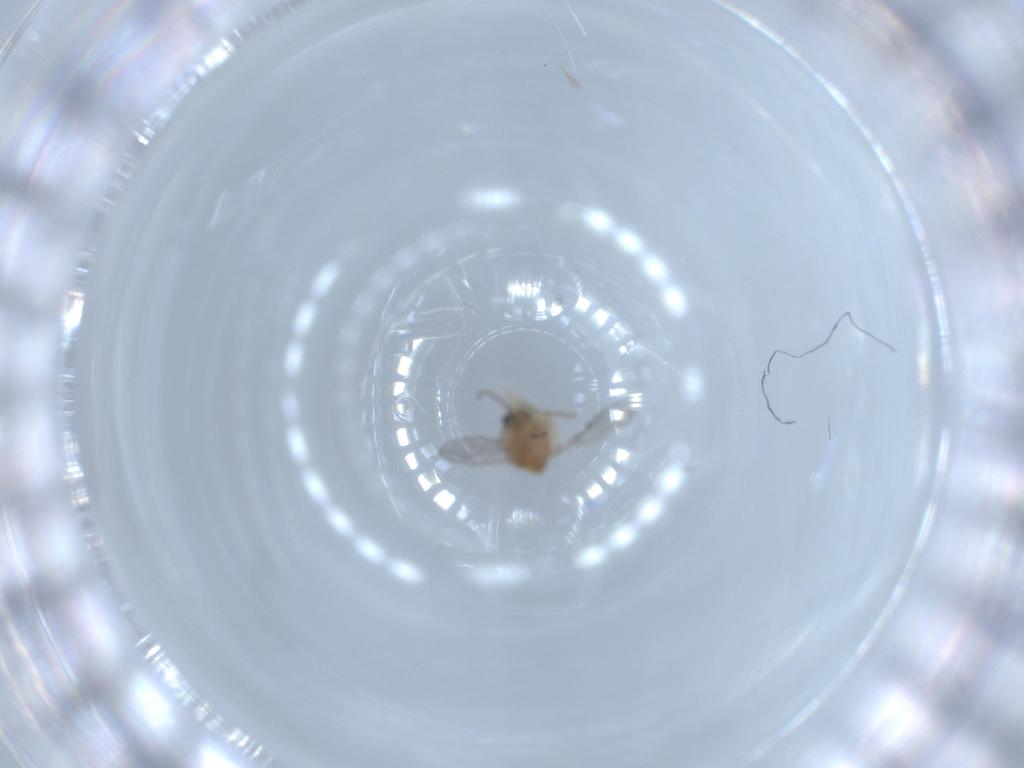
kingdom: Animalia
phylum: Arthropoda
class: Insecta
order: Diptera
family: Ceratopogonidae
